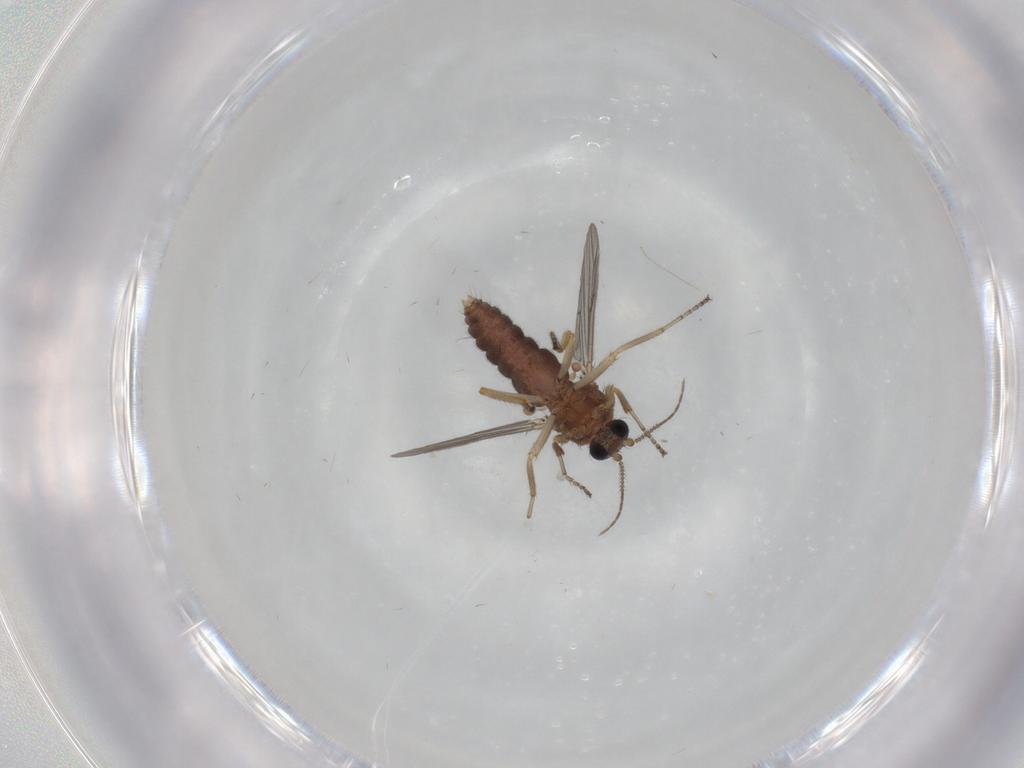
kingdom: Animalia
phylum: Arthropoda
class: Insecta
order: Diptera
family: Ceratopogonidae
